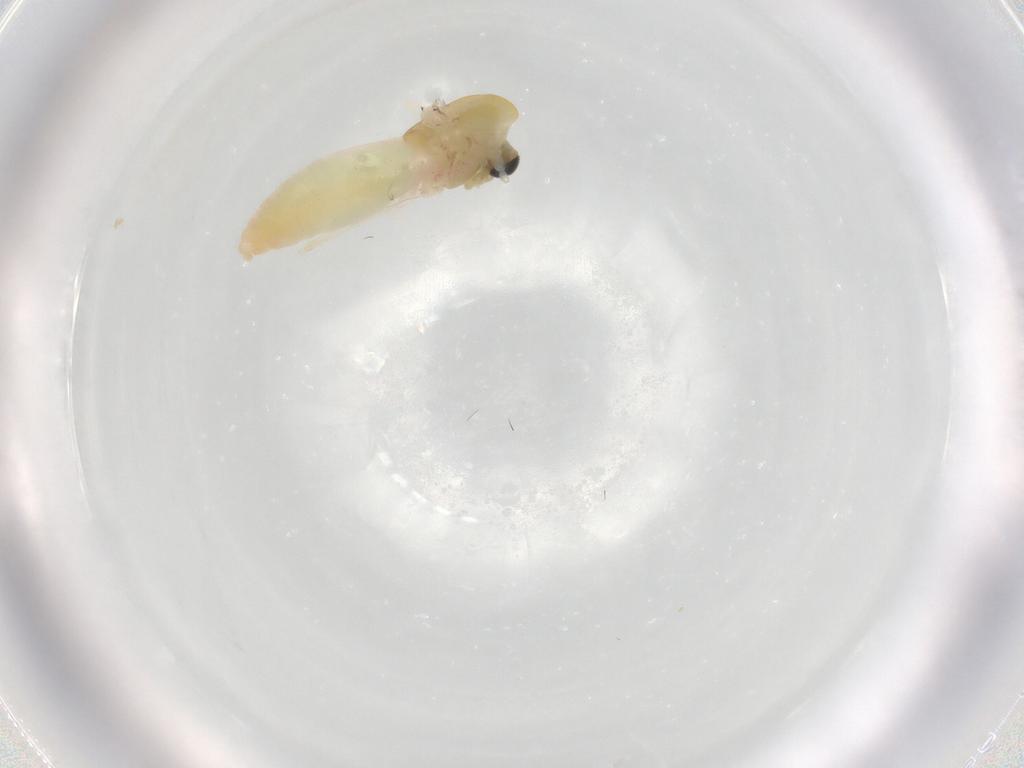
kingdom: Animalia
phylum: Arthropoda
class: Insecta
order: Diptera
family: Chironomidae
